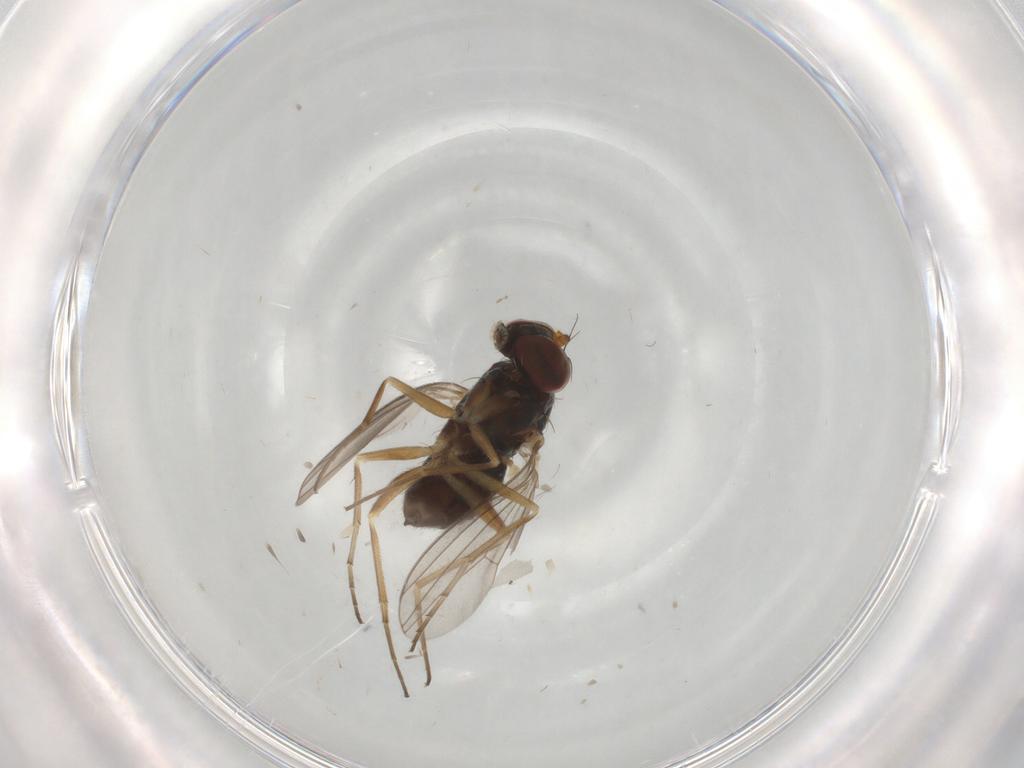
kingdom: Animalia
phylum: Arthropoda
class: Insecta
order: Diptera
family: Dolichopodidae
